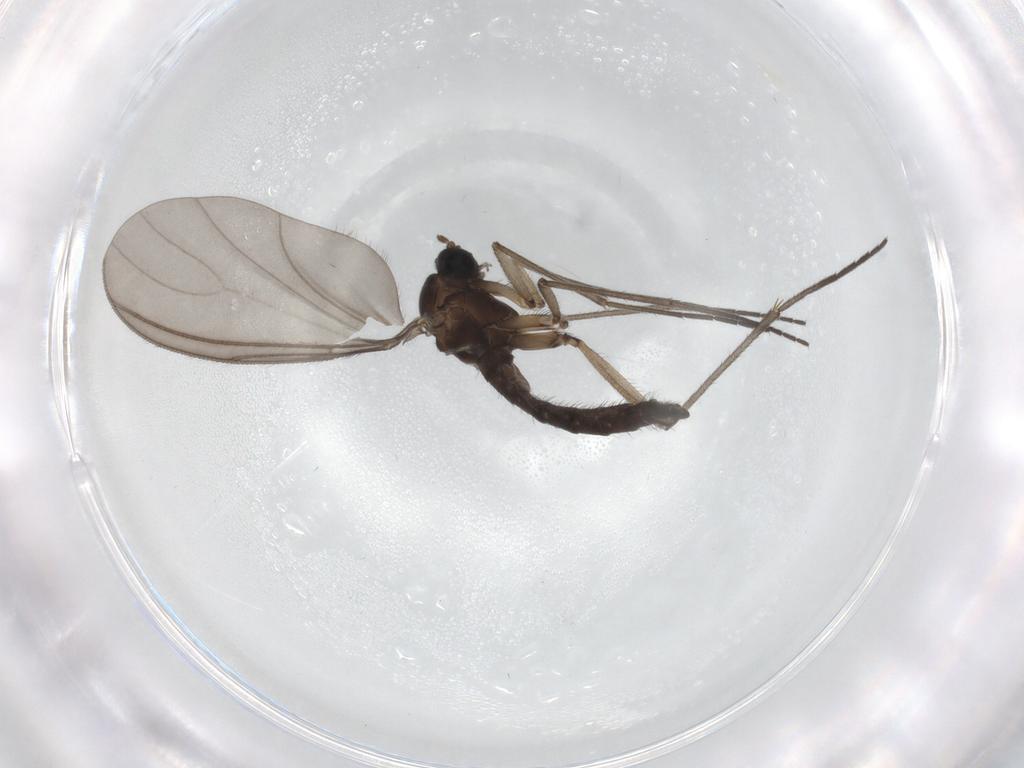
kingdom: Animalia
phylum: Arthropoda
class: Insecta
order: Diptera
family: Sciaridae
